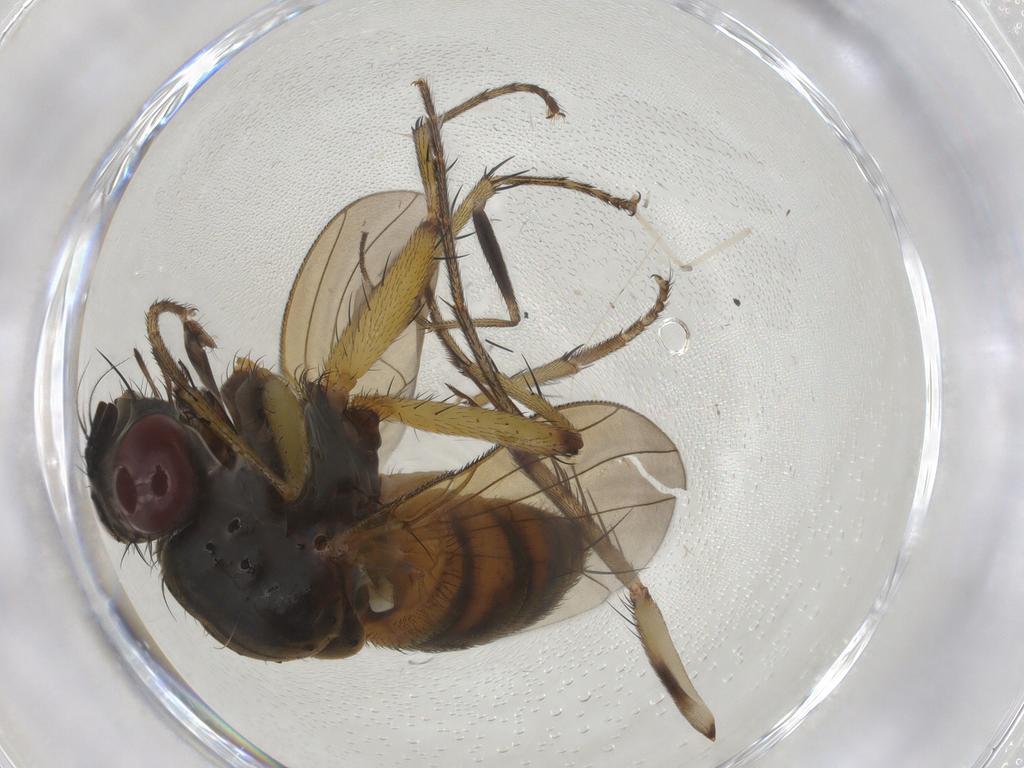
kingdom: Animalia
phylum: Arthropoda
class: Insecta
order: Diptera
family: Muscidae
